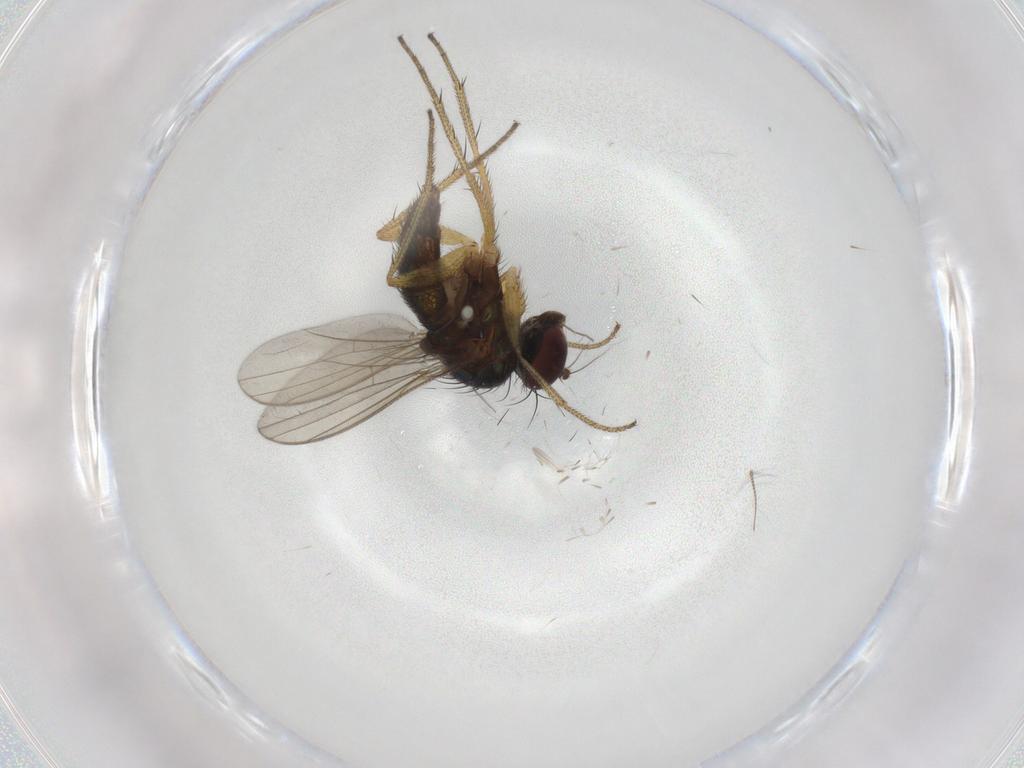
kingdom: Animalia
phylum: Arthropoda
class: Insecta
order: Diptera
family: Dolichopodidae
